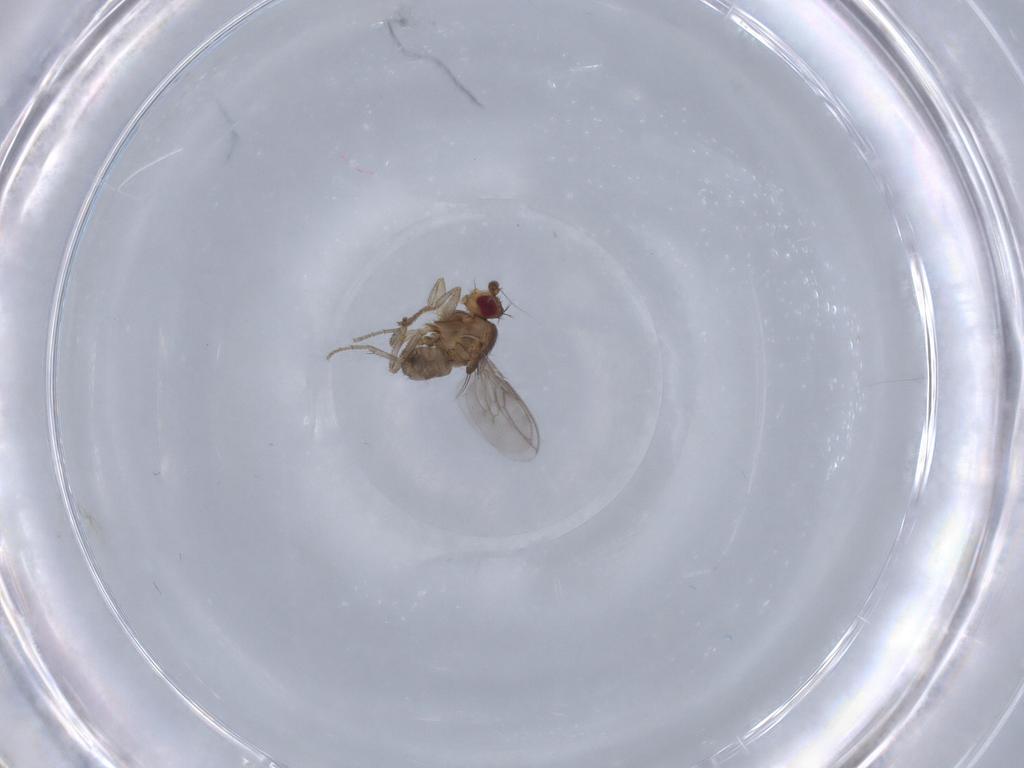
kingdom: Animalia
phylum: Arthropoda
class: Insecta
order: Diptera
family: Sphaeroceridae
